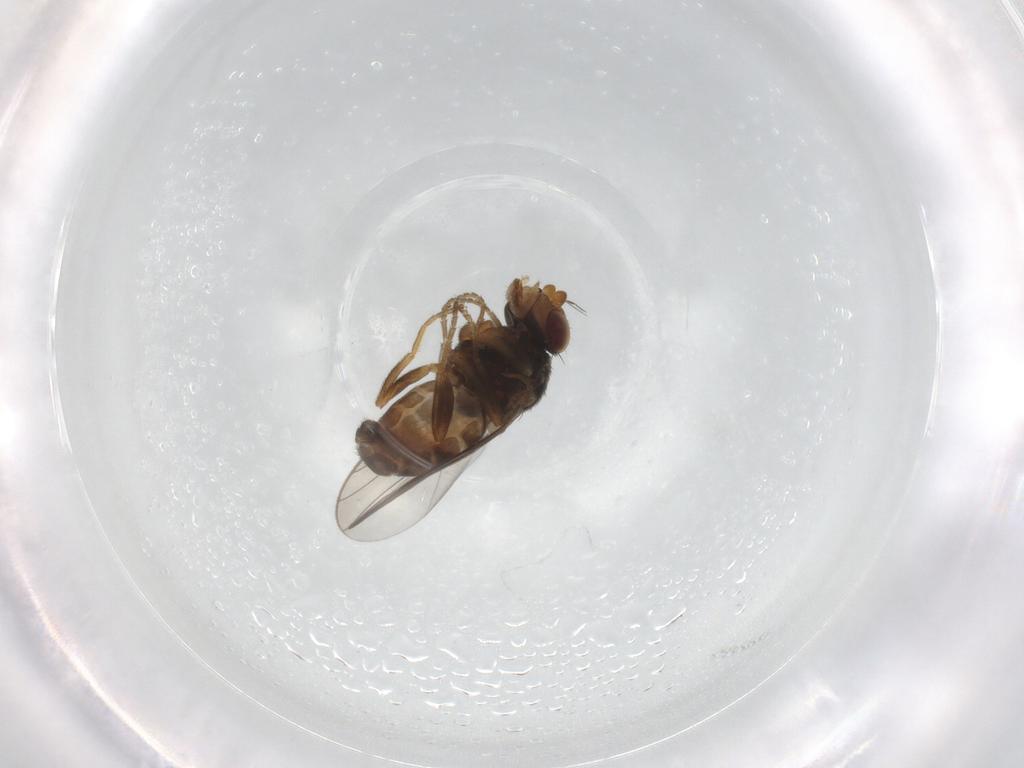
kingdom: Animalia
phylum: Arthropoda
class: Insecta
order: Diptera
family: Chloropidae
